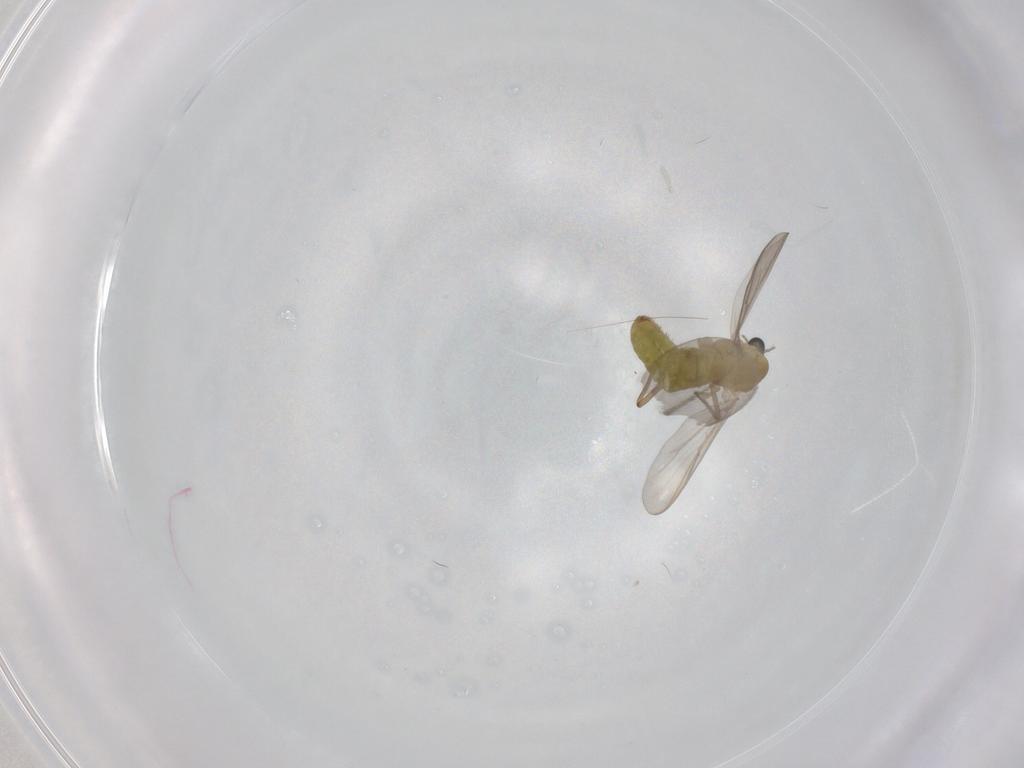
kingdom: Animalia
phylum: Arthropoda
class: Insecta
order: Diptera
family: Chironomidae
